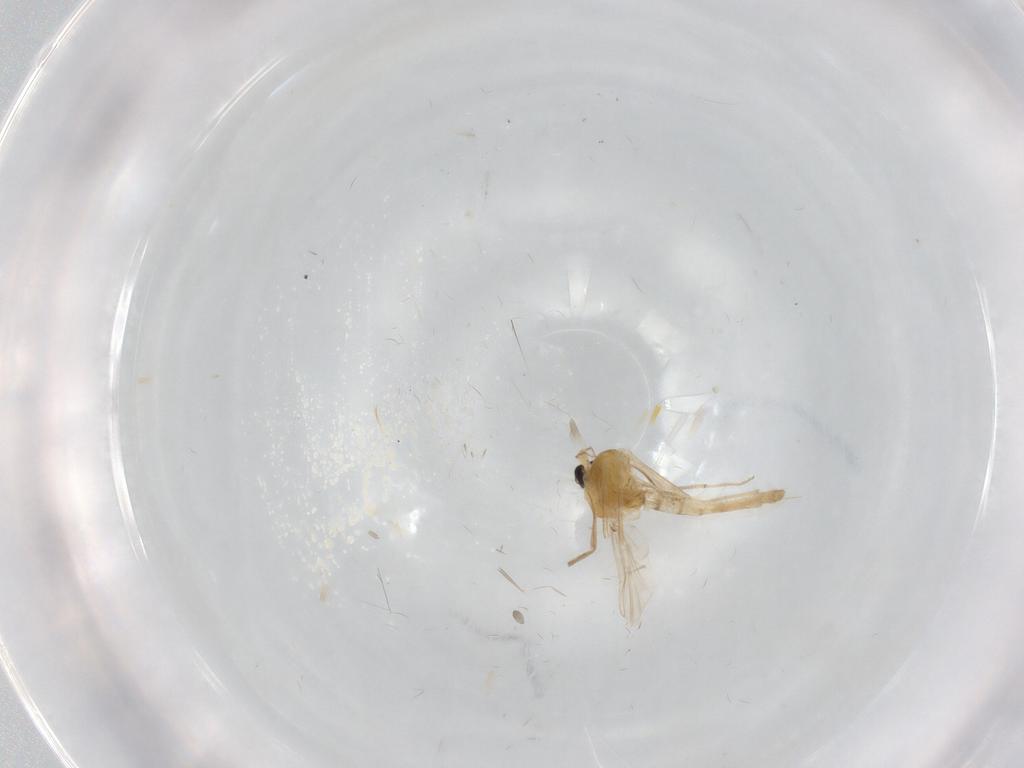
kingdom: Animalia
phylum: Arthropoda
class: Insecta
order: Diptera
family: Chironomidae
